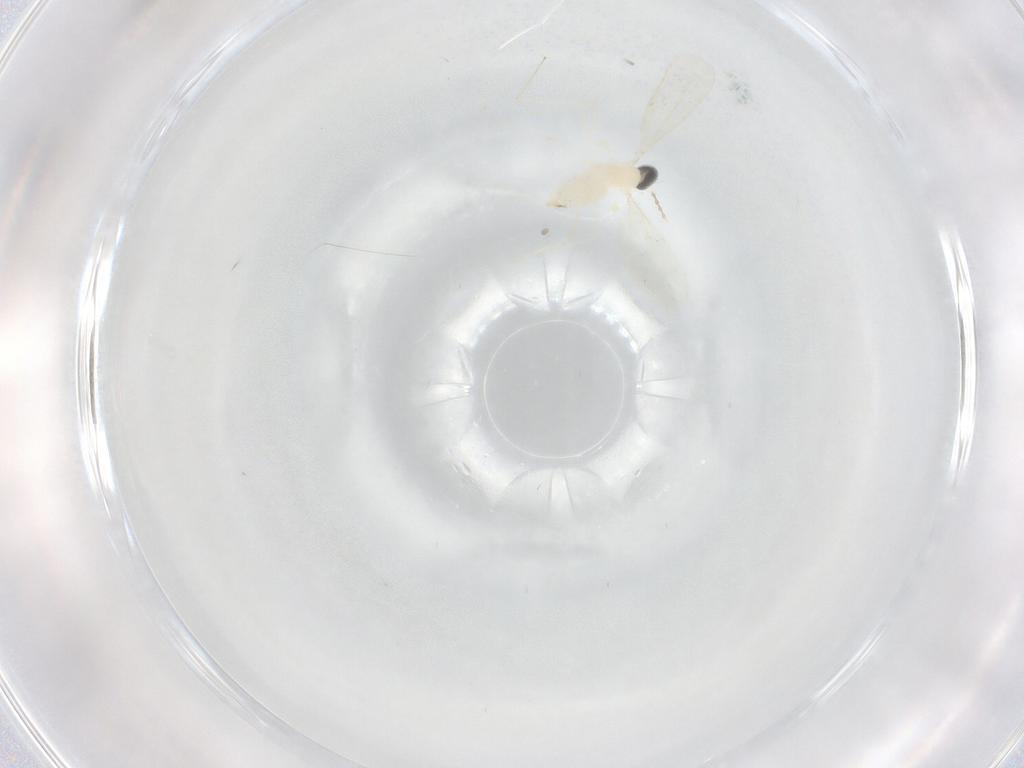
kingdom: Animalia
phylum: Arthropoda
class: Insecta
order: Diptera
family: Cecidomyiidae
